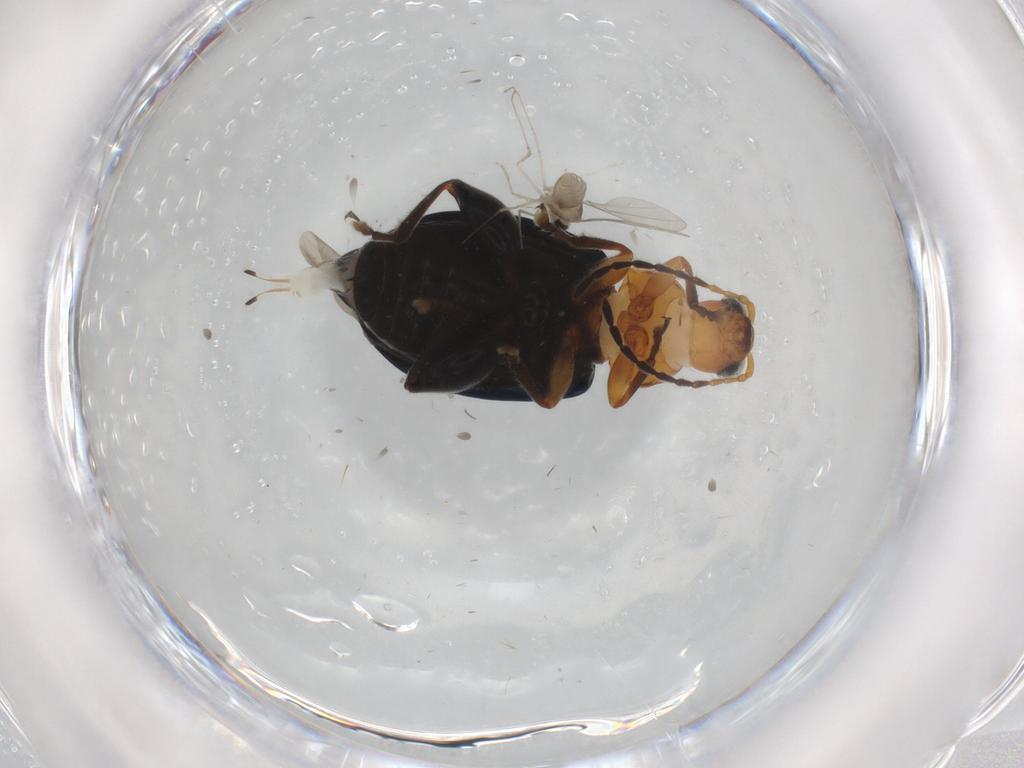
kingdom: Animalia
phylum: Arthropoda
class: Insecta
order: Coleoptera
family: Chrysomelidae
